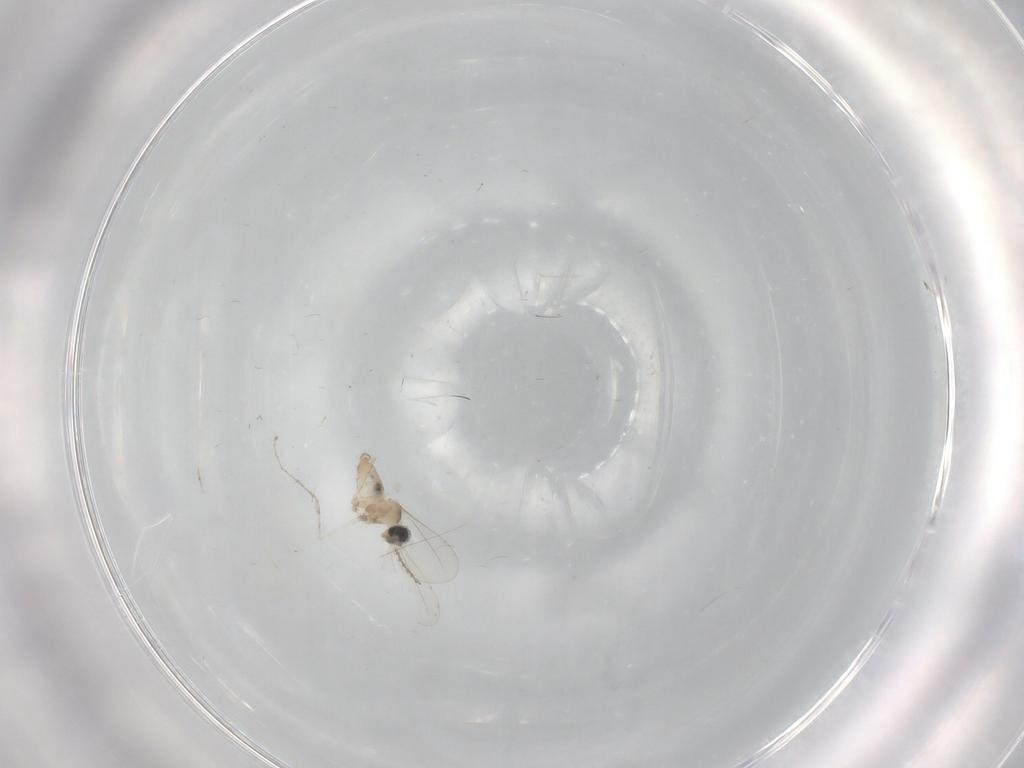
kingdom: Animalia
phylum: Arthropoda
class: Insecta
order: Diptera
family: Cecidomyiidae
